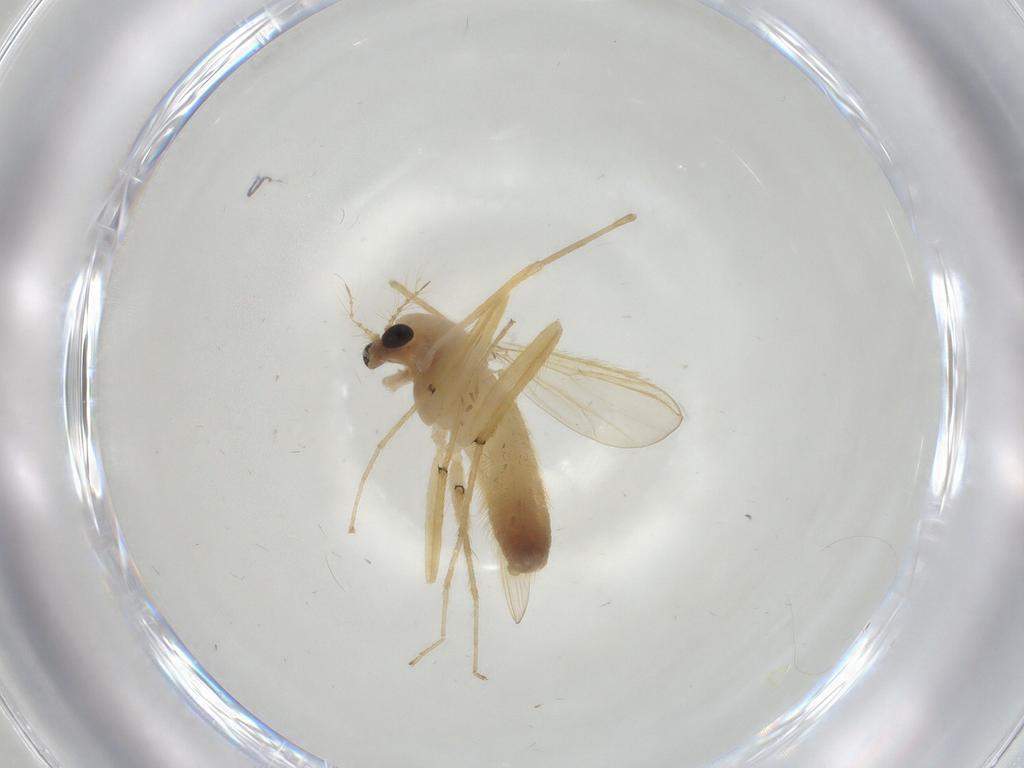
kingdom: Animalia
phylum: Arthropoda
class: Insecta
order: Diptera
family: Chironomidae
